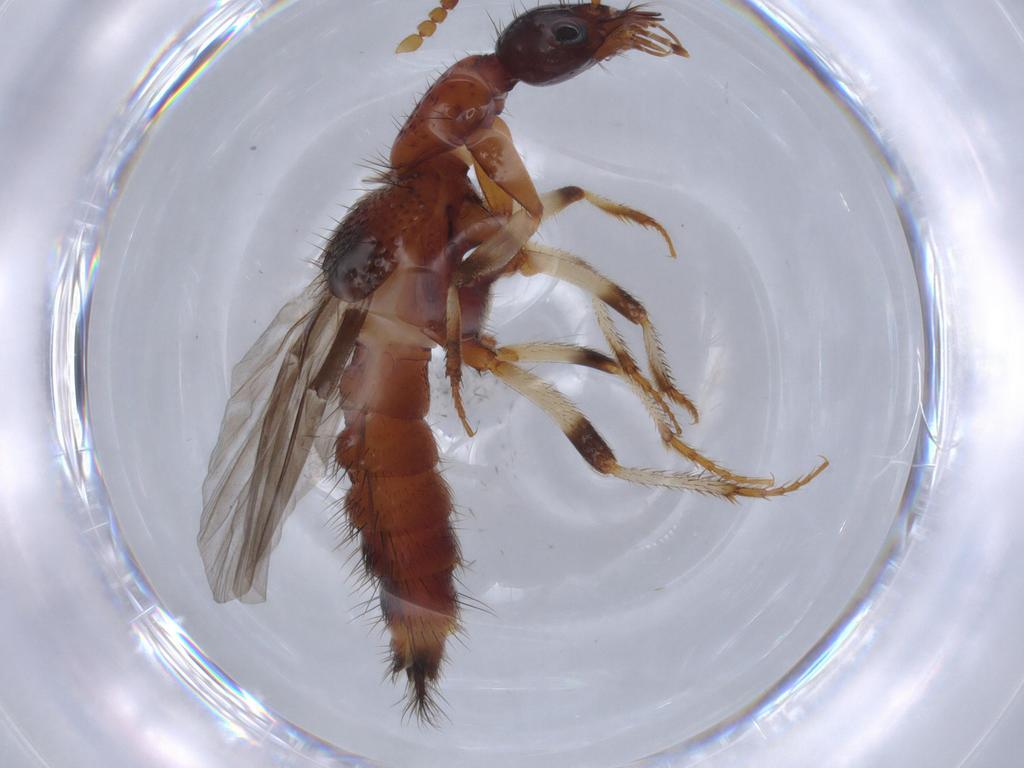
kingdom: Animalia
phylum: Arthropoda
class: Insecta
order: Coleoptera
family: Staphylinidae
